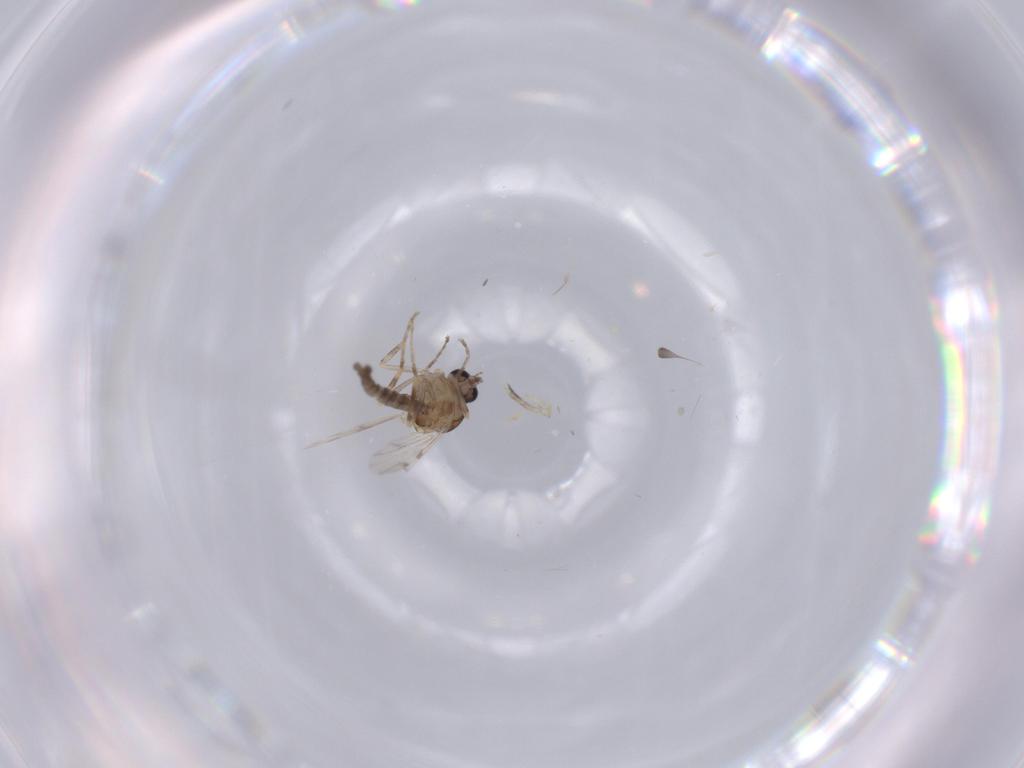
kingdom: Animalia
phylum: Arthropoda
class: Insecta
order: Diptera
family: Ceratopogonidae
